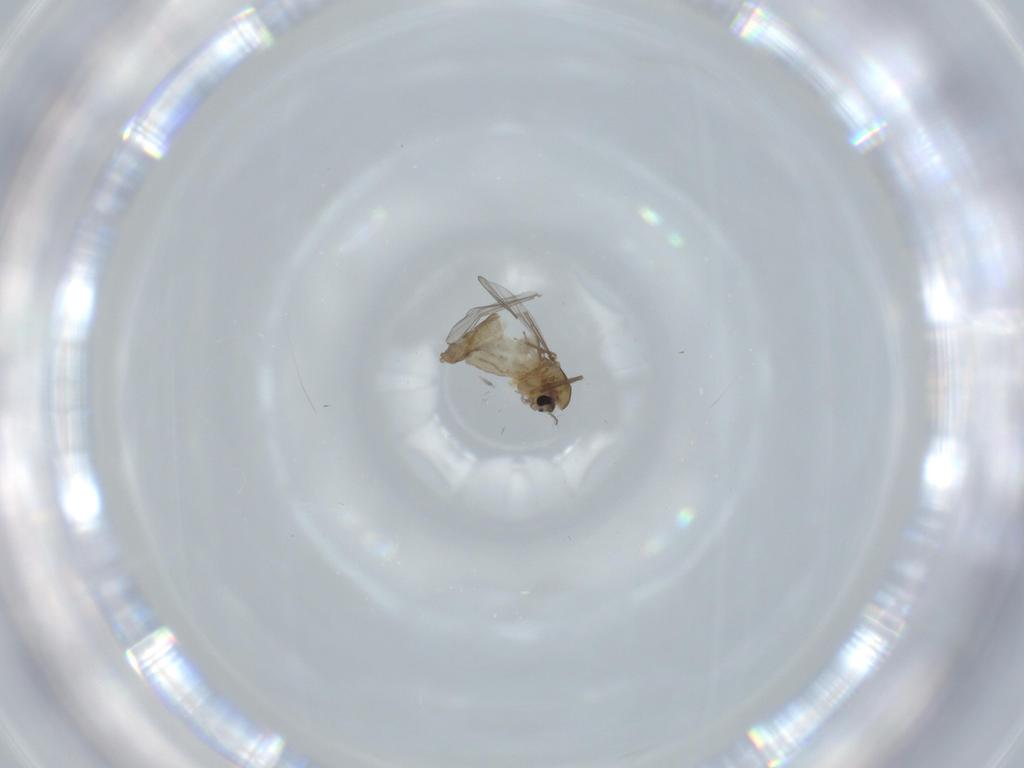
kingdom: Animalia
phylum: Arthropoda
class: Insecta
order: Diptera
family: Chironomidae
